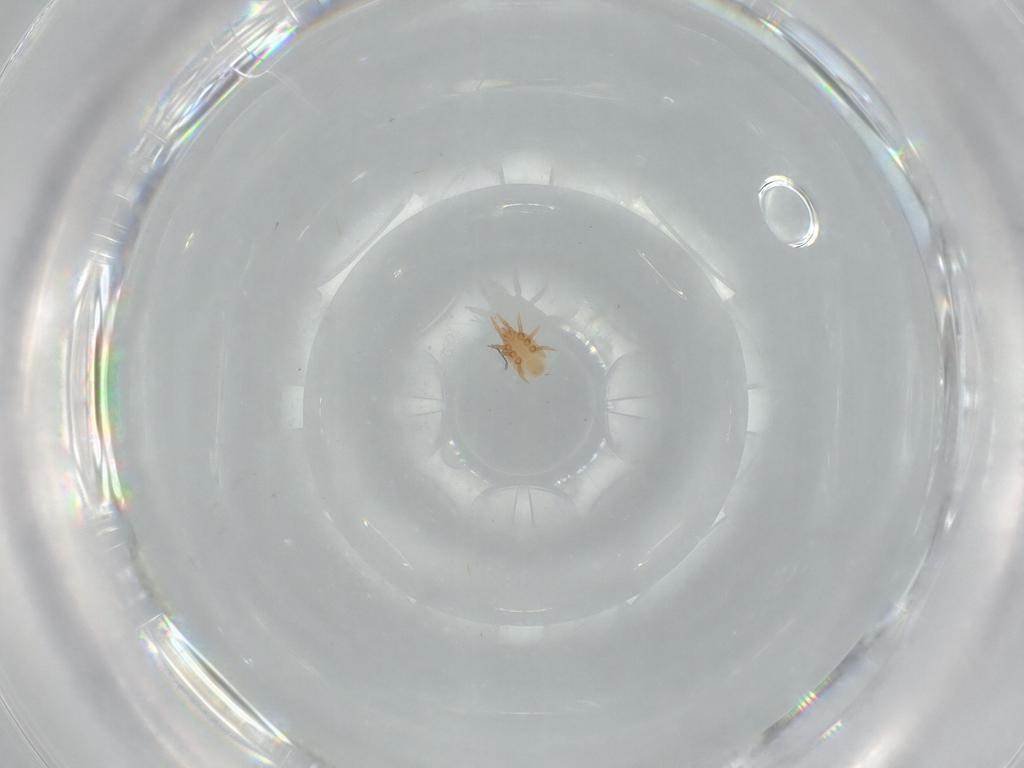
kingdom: Animalia
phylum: Arthropoda
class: Arachnida
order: Mesostigmata
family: Dinychidae
